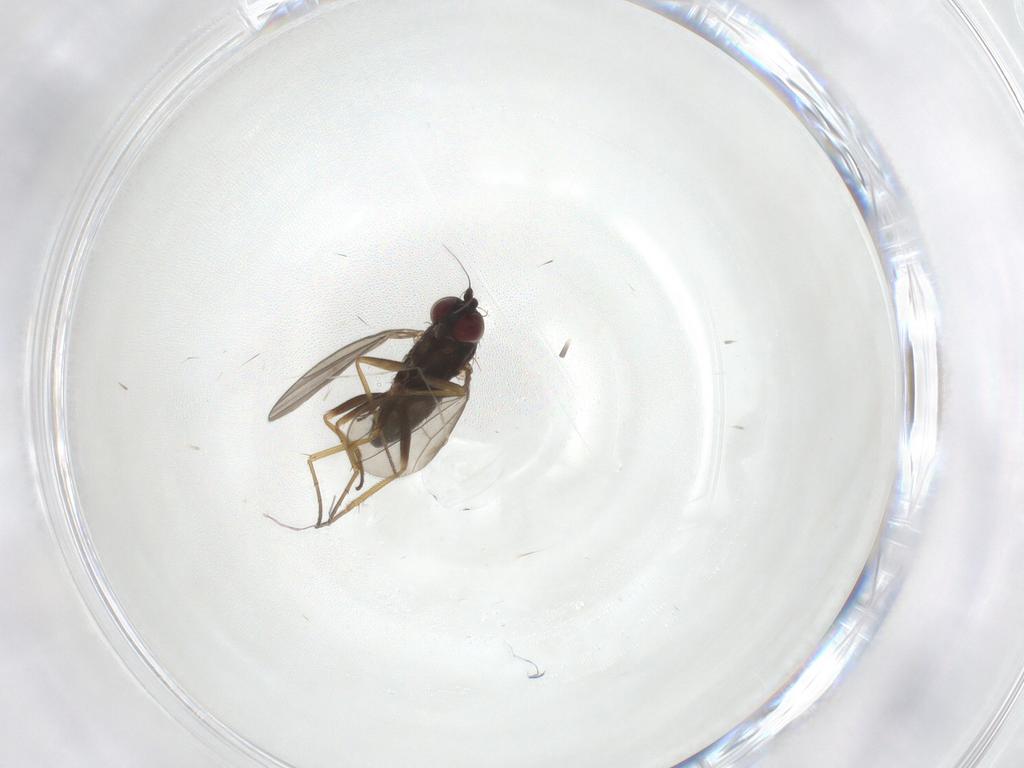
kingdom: Animalia
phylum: Arthropoda
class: Insecta
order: Diptera
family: Dolichopodidae
